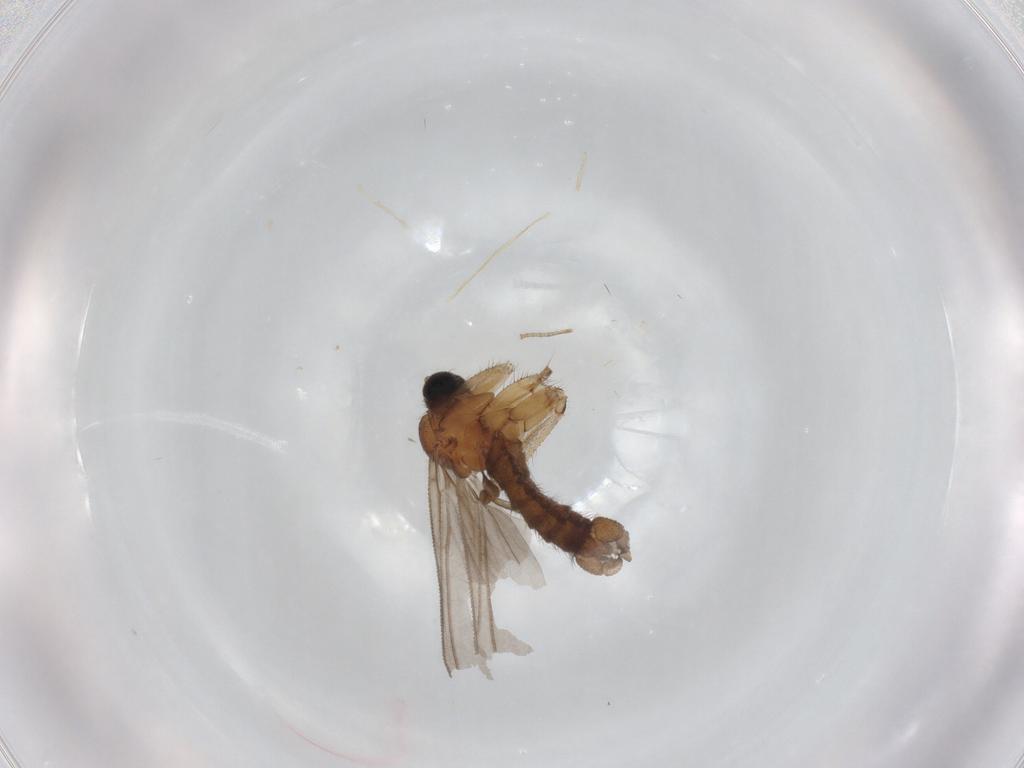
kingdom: Animalia
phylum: Arthropoda
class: Insecta
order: Diptera
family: Sciaridae
